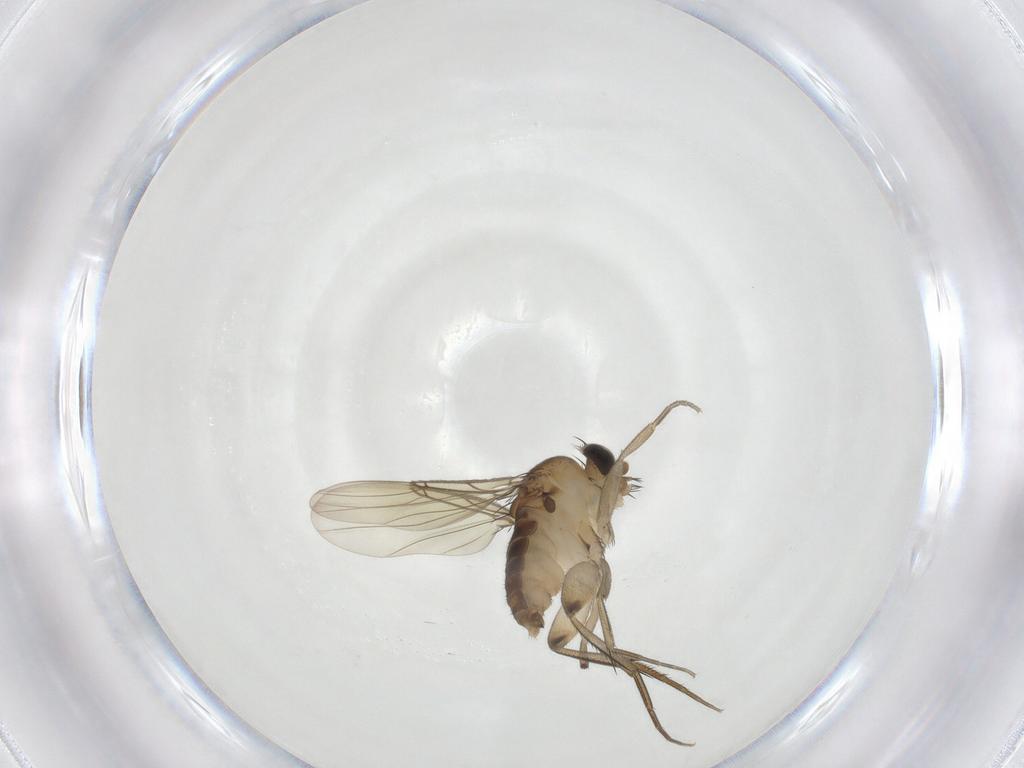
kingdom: Animalia
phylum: Arthropoda
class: Insecta
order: Diptera
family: Phoridae
